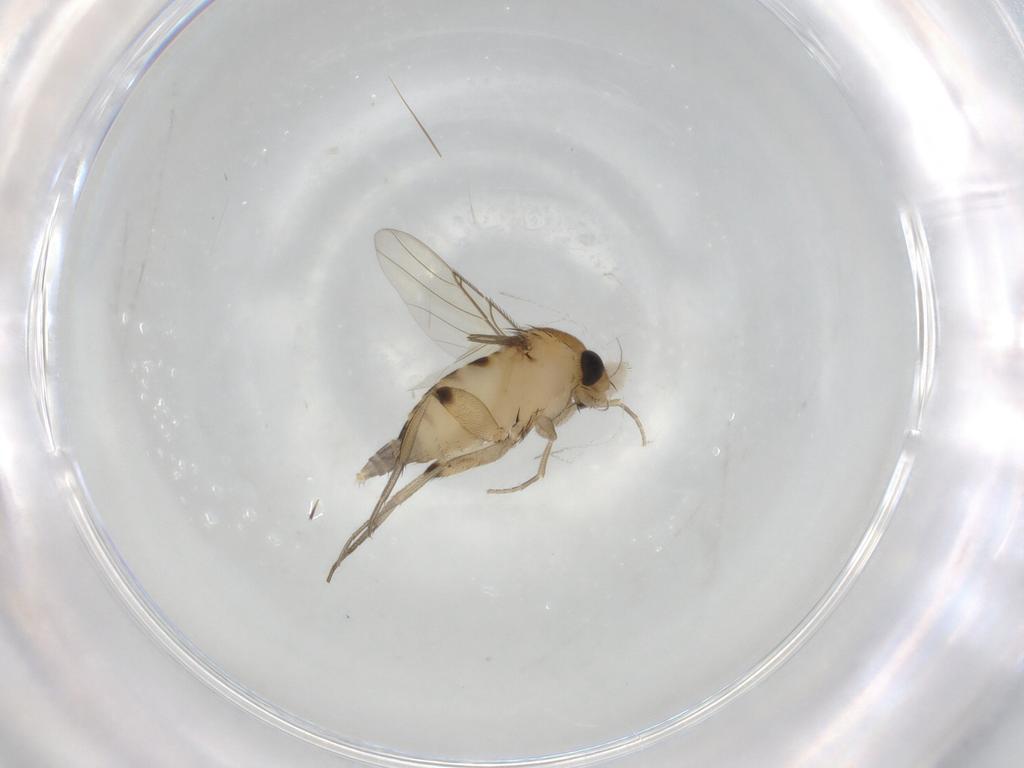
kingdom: Animalia
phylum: Arthropoda
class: Insecta
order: Diptera
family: Phoridae
